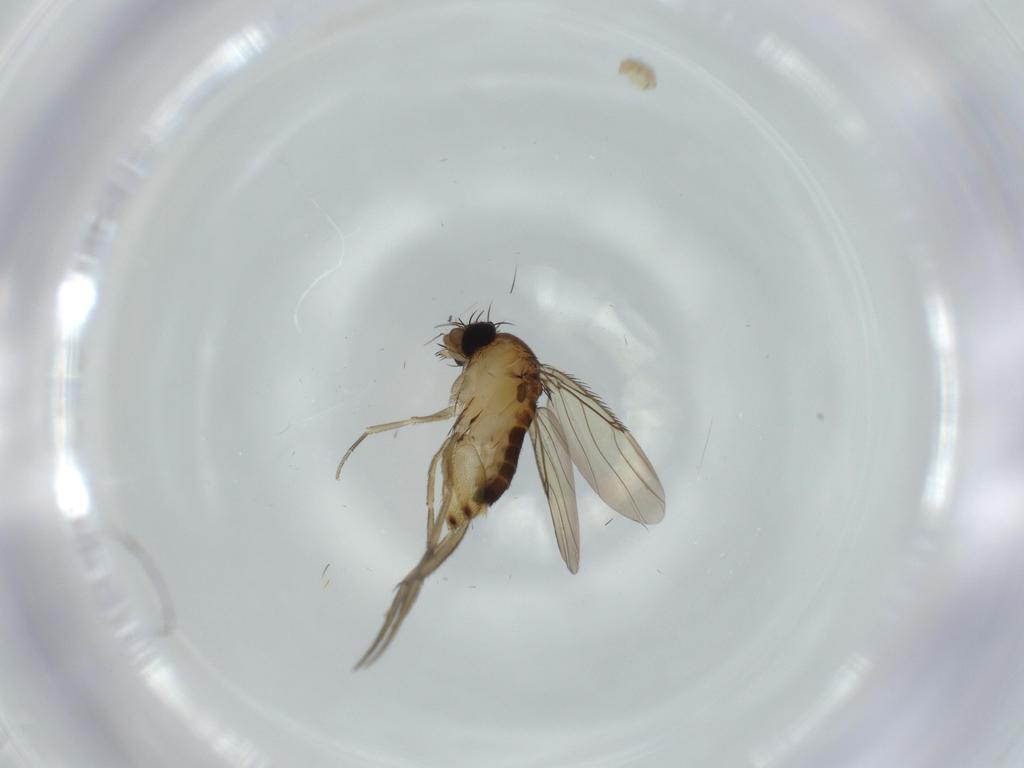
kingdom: Animalia
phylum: Arthropoda
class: Insecta
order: Diptera
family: Phoridae
